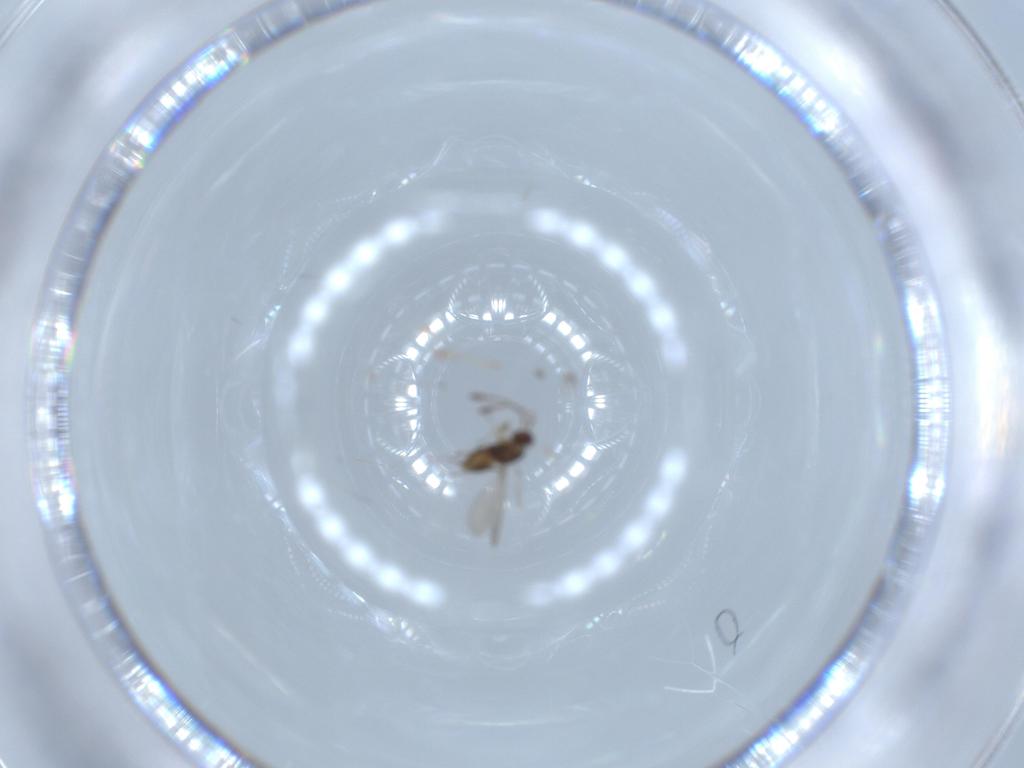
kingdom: Animalia
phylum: Arthropoda
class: Insecta
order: Hymenoptera
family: Mymaridae
